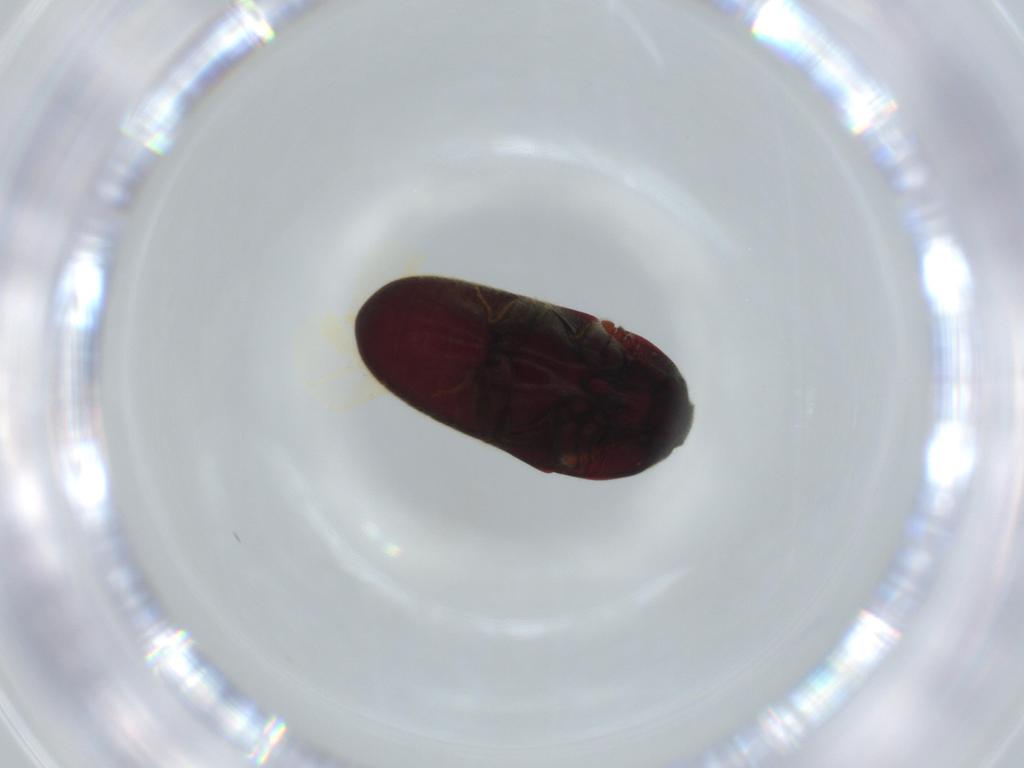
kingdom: Animalia
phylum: Arthropoda
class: Insecta
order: Coleoptera
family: Throscidae
